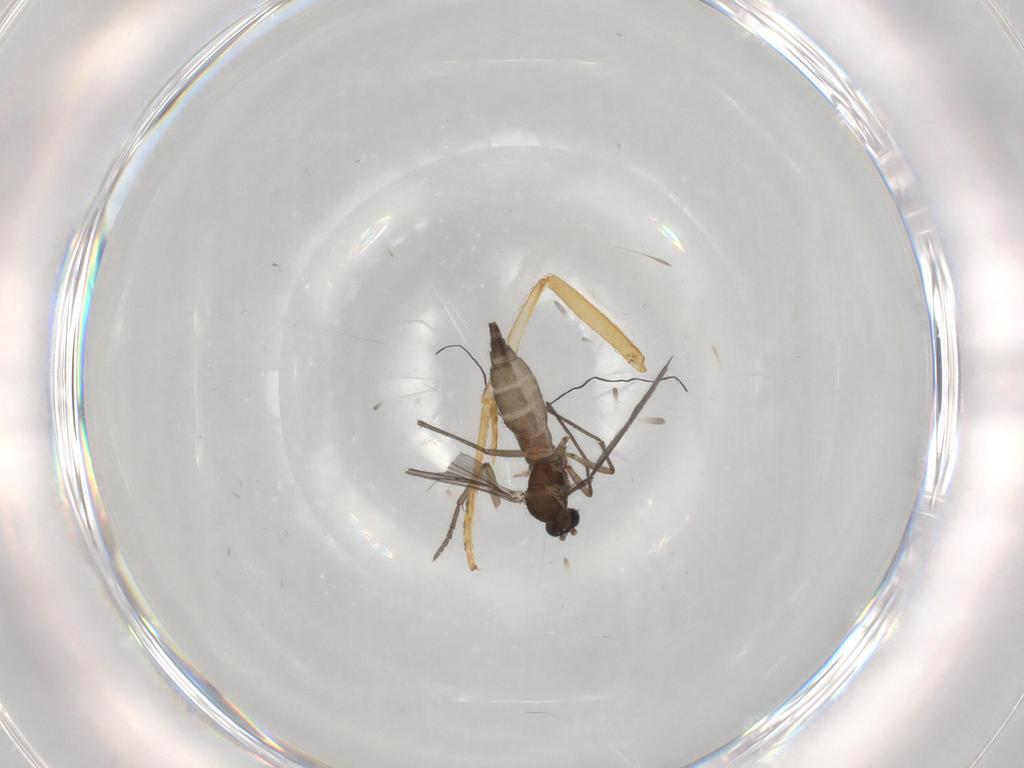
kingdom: Animalia
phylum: Arthropoda
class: Insecta
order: Diptera
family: Sciaridae
